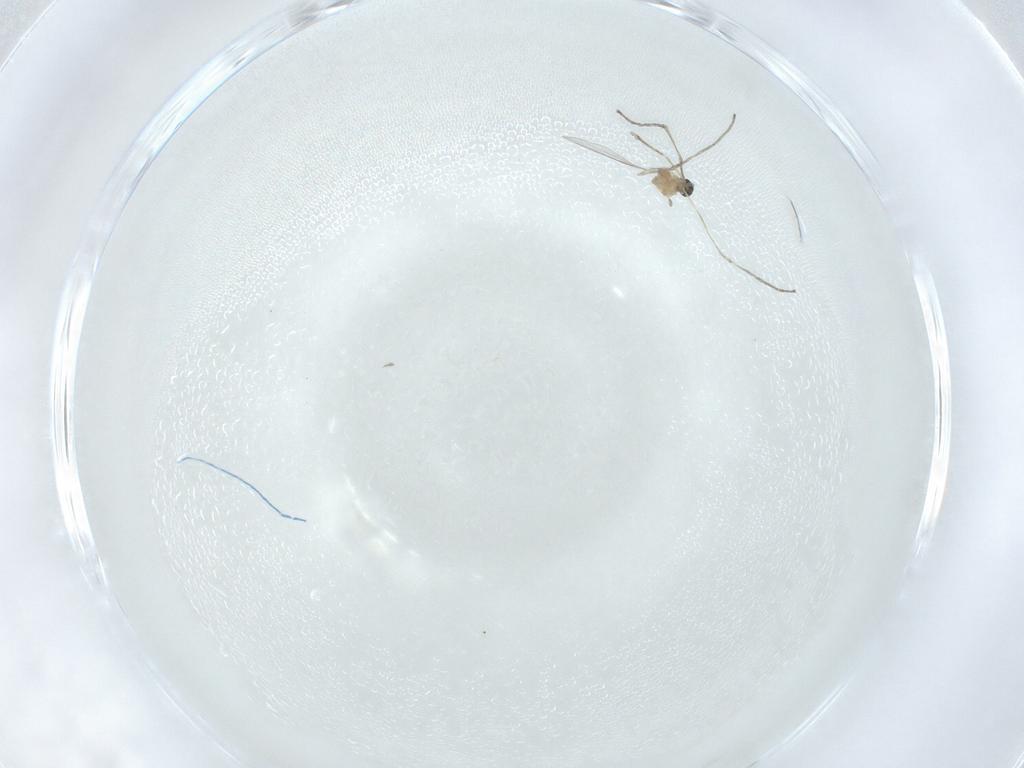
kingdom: Animalia
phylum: Arthropoda
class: Insecta
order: Diptera
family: Cecidomyiidae
